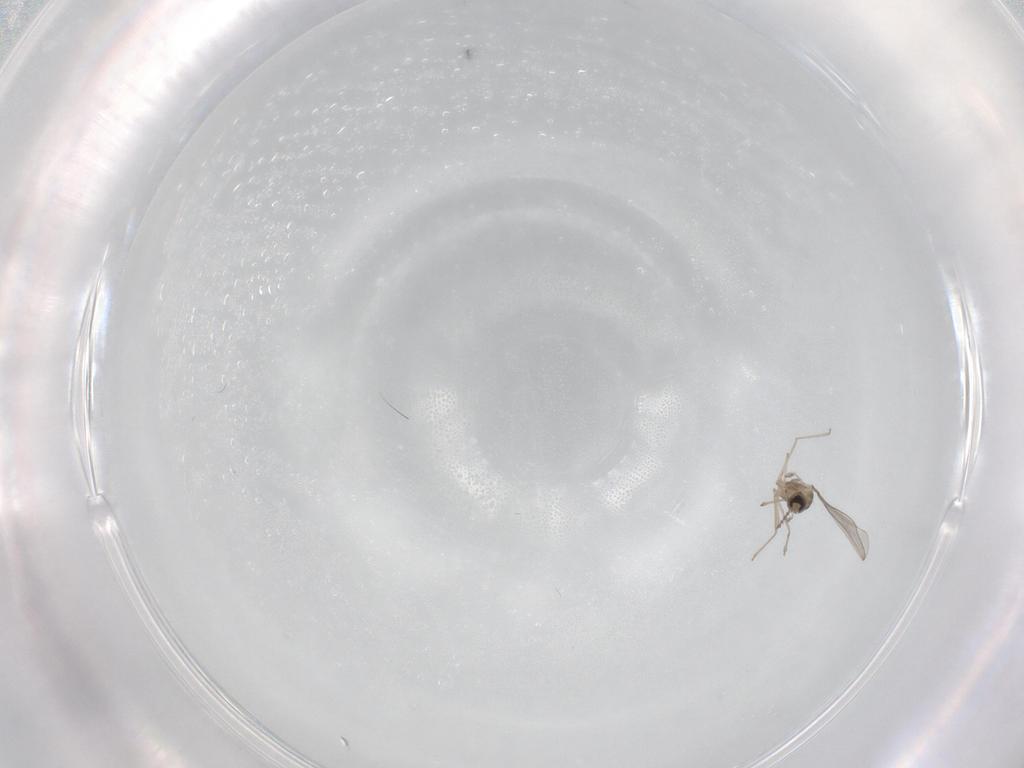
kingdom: Animalia
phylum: Arthropoda
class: Insecta
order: Diptera
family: Cecidomyiidae
